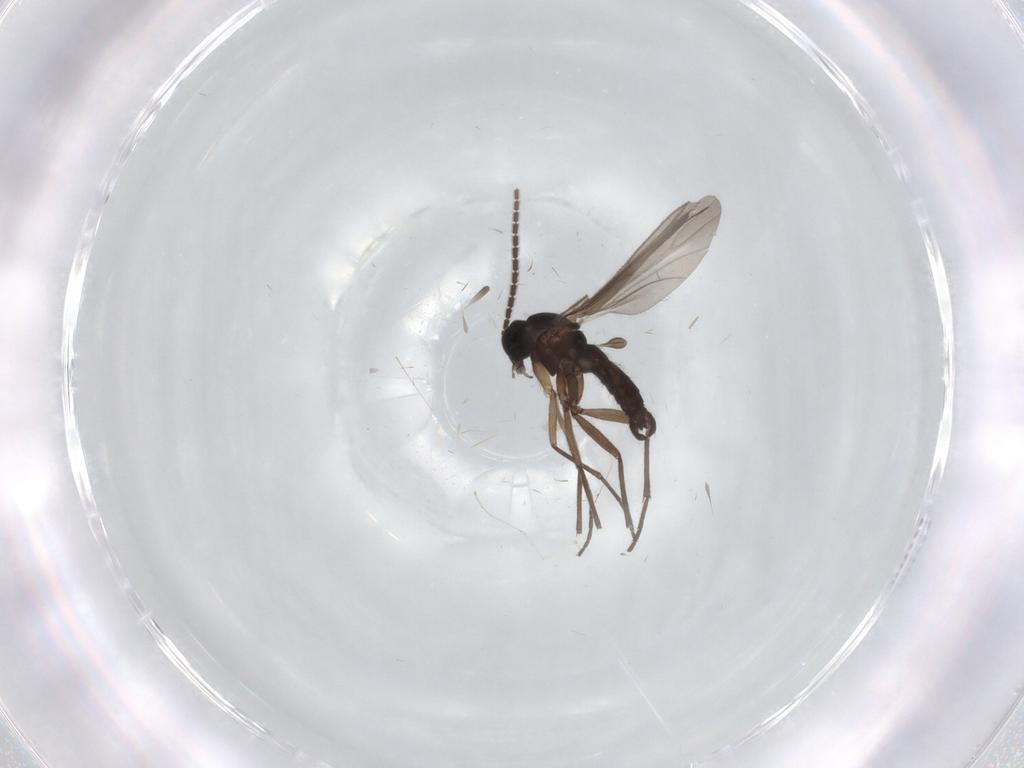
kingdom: Animalia
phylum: Arthropoda
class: Insecta
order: Diptera
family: Sciaridae
